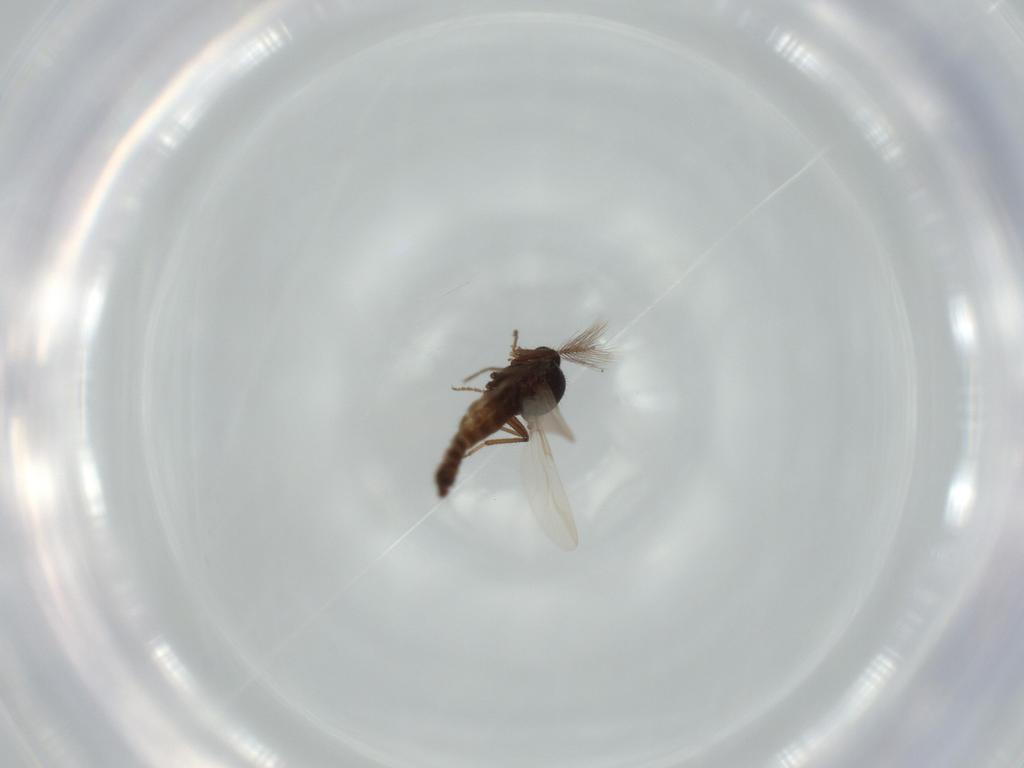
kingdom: Animalia
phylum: Arthropoda
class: Insecta
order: Diptera
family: Ceratopogonidae
